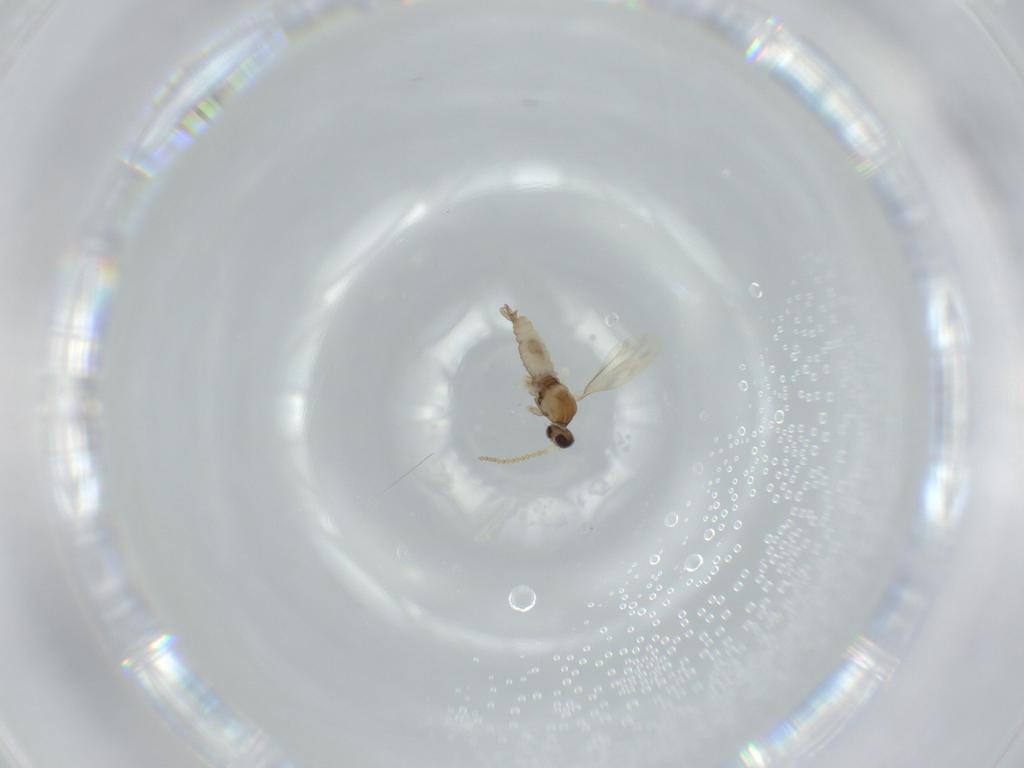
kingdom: Animalia
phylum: Arthropoda
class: Insecta
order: Diptera
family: Cecidomyiidae
